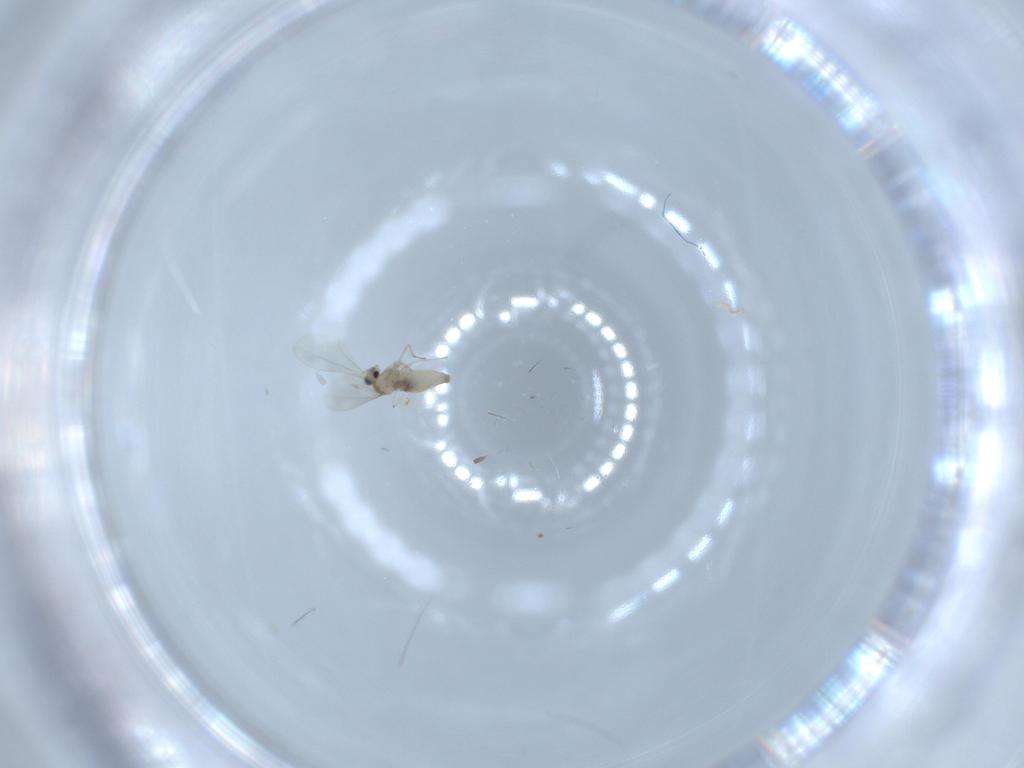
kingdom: Animalia
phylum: Arthropoda
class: Insecta
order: Diptera
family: Cecidomyiidae
